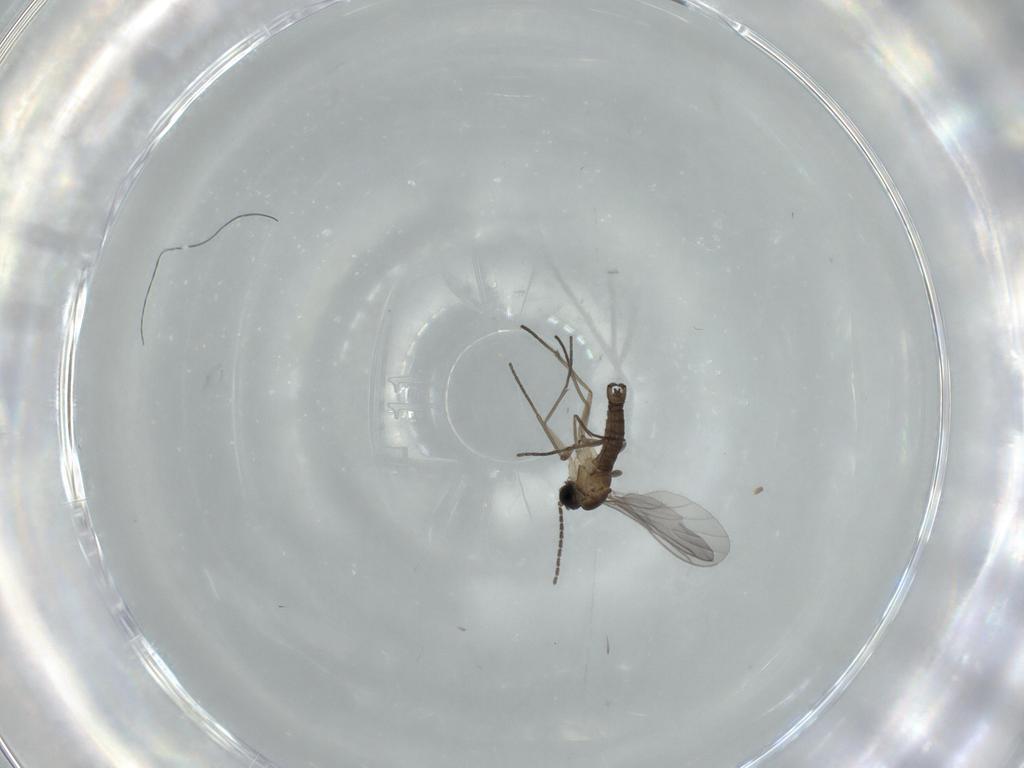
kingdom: Animalia
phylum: Arthropoda
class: Insecta
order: Diptera
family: Sciaridae
